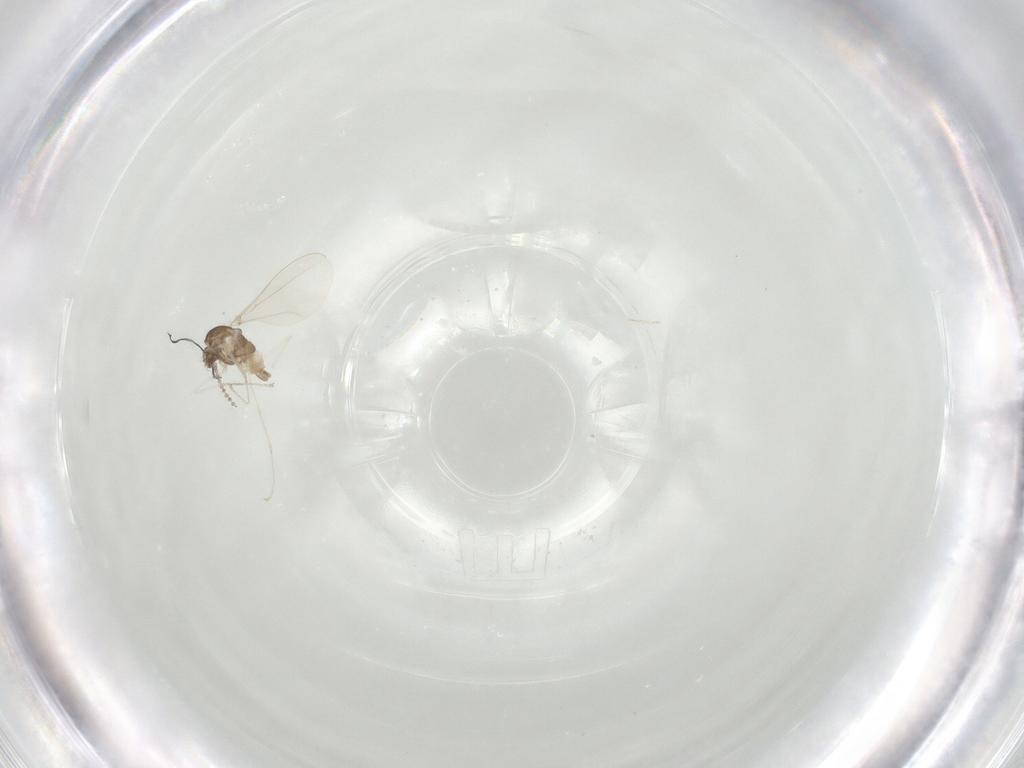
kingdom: Animalia
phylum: Arthropoda
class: Insecta
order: Diptera
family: Cecidomyiidae
